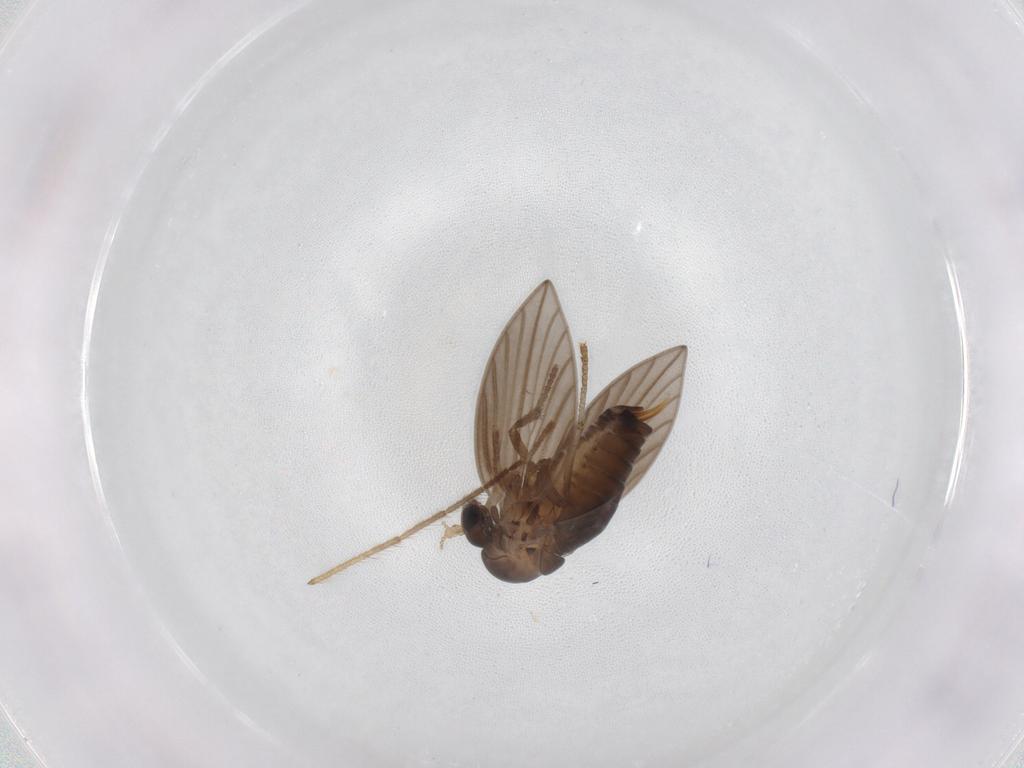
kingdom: Animalia
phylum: Arthropoda
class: Insecta
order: Diptera
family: Psychodidae
